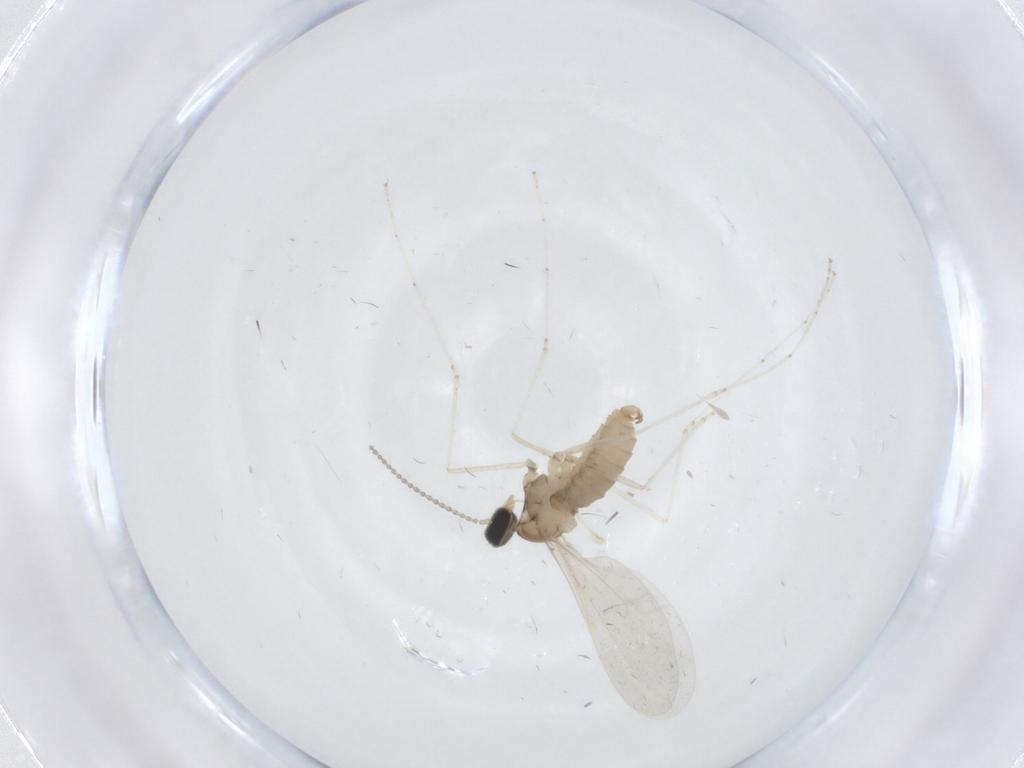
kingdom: Animalia
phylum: Arthropoda
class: Insecta
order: Diptera
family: Cecidomyiidae
